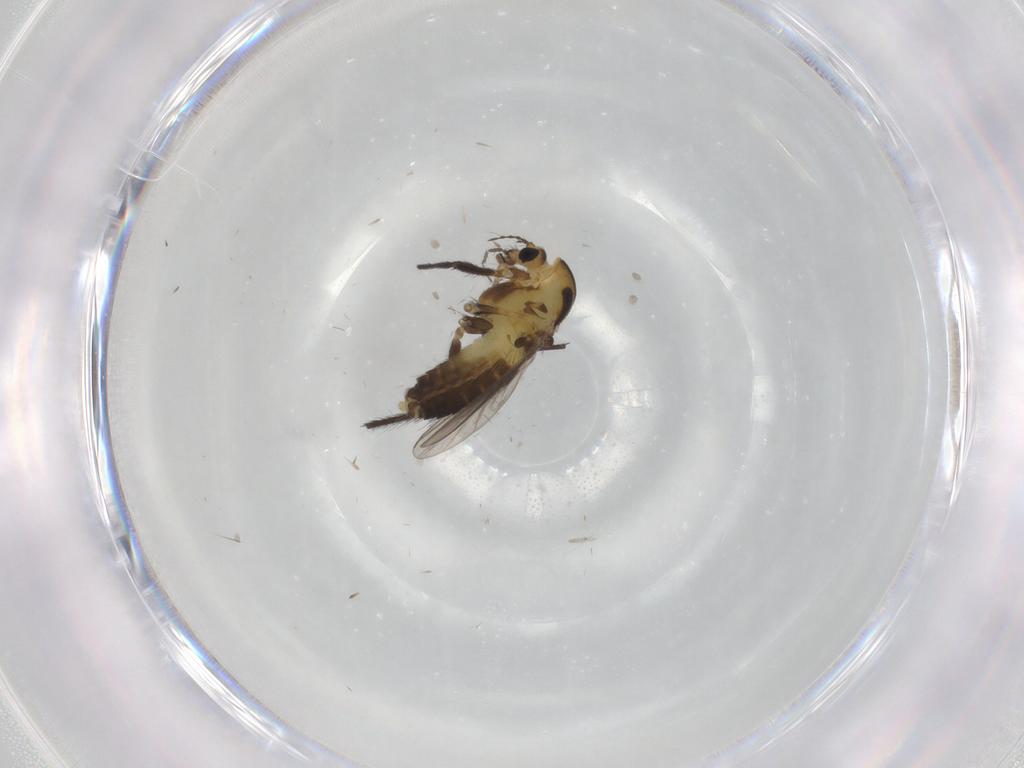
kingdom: Animalia
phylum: Arthropoda
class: Insecta
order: Diptera
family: Chironomidae
